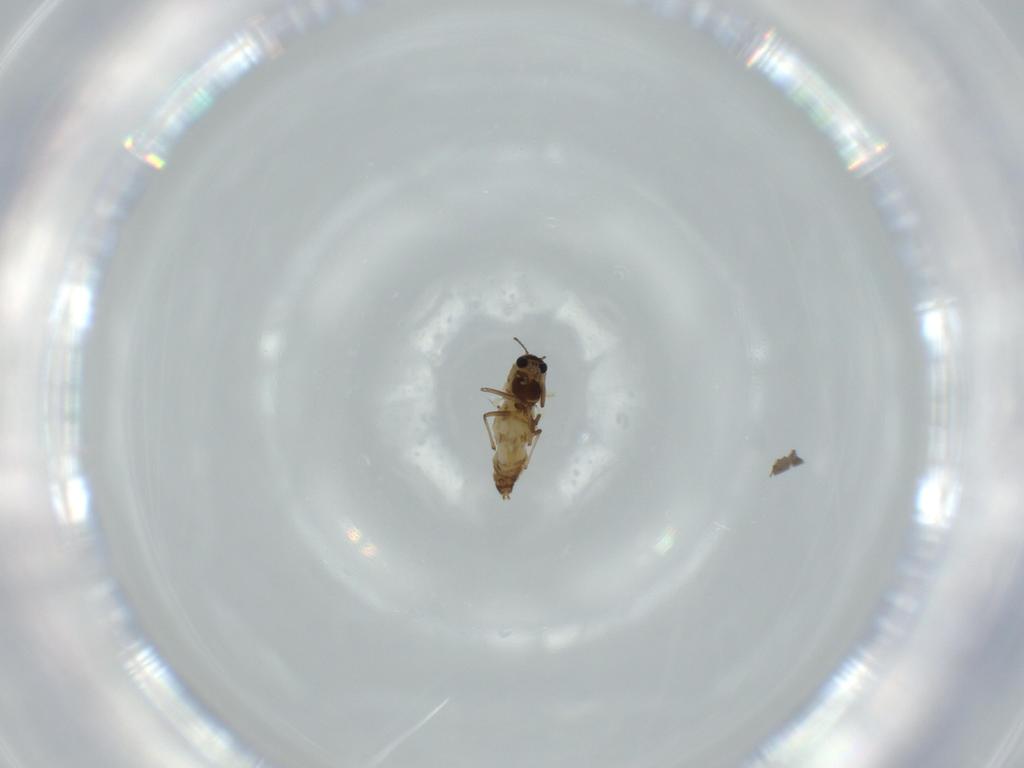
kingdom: Animalia
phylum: Arthropoda
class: Insecta
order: Diptera
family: Chironomidae
